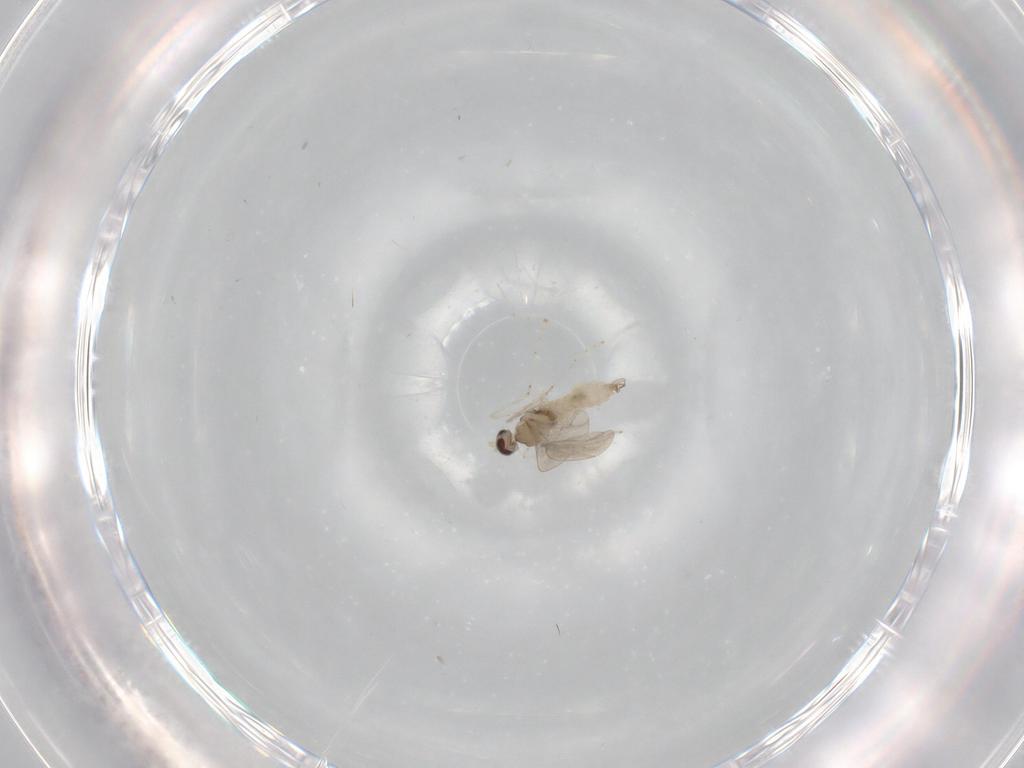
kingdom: Animalia
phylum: Arthropoda
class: Insecta
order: Diptera
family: Cecidomyiidae
